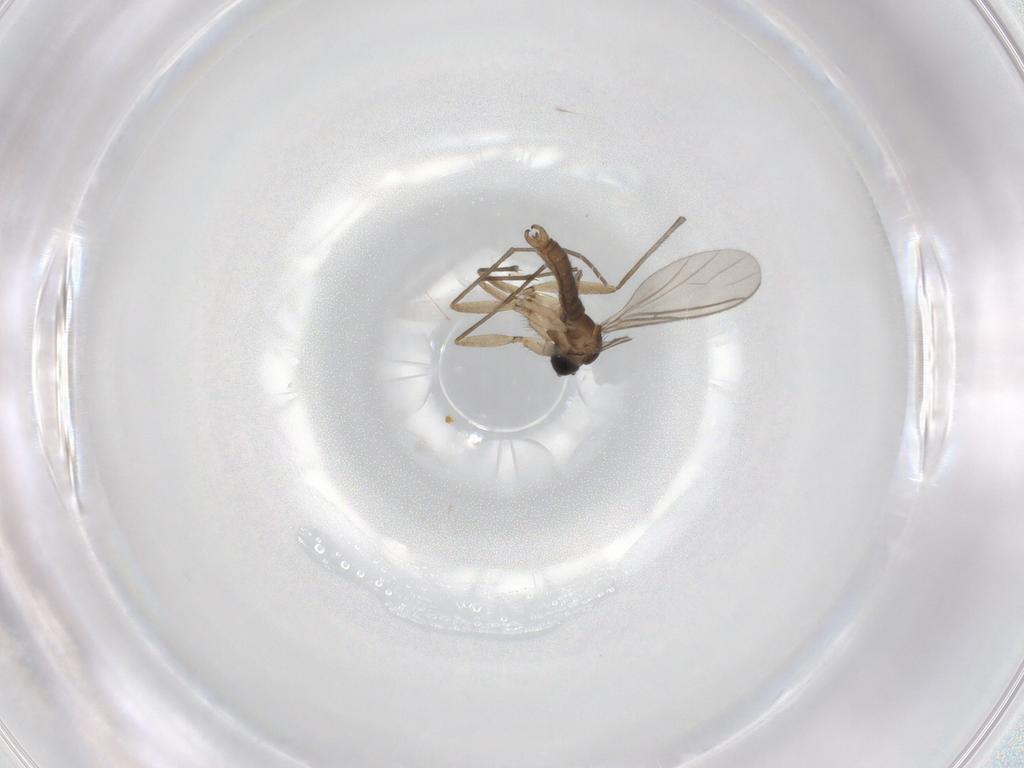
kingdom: Animalia
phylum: Arthropoda
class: Insecta
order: Diptera
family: Sciaridae
